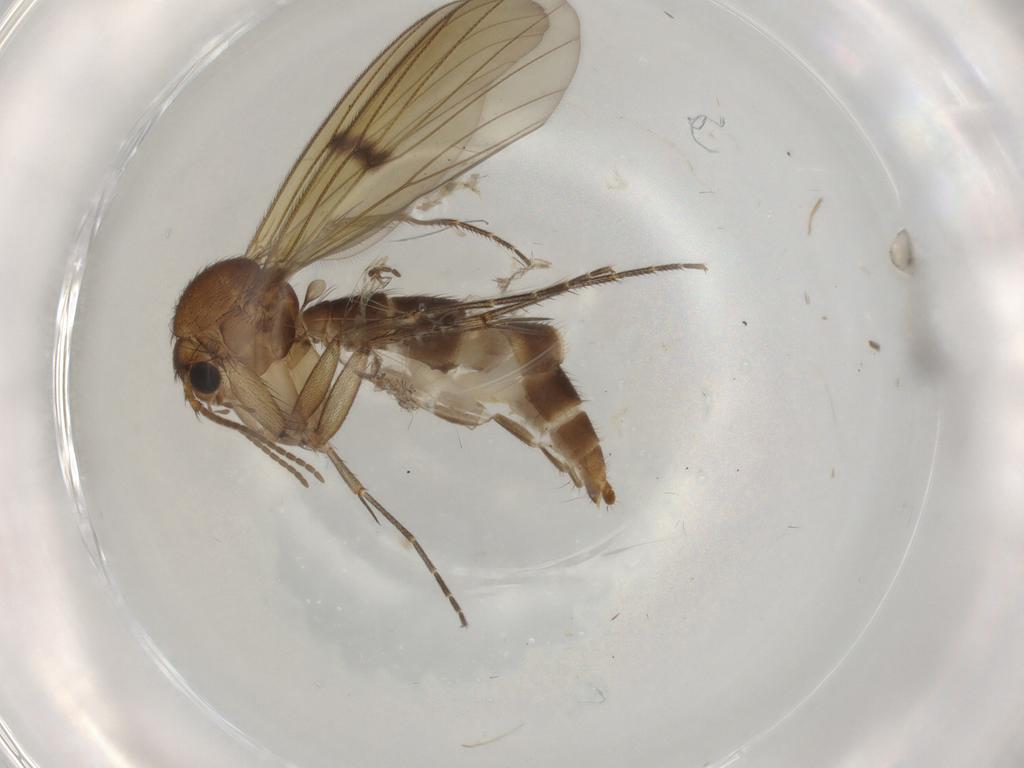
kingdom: Animalia
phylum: Arthropoda
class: Insecta
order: Diptera
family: Mycetophilidae
